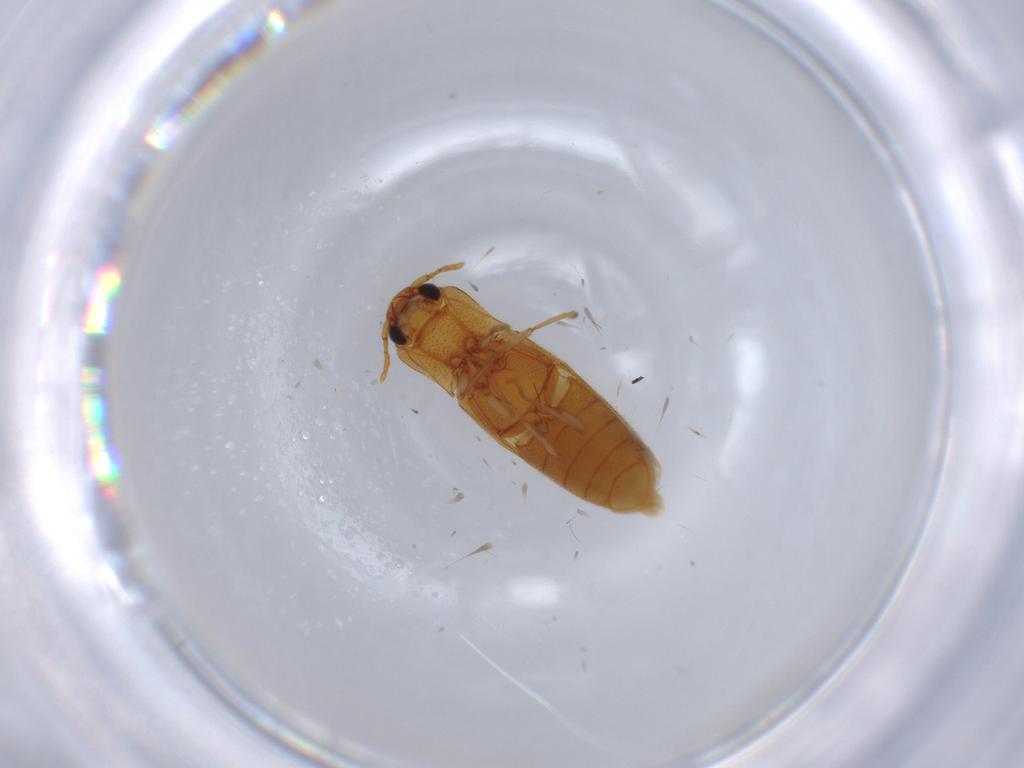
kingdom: Animalia
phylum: Arthropoda
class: Insecta
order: Coleoptera
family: Elateridae
